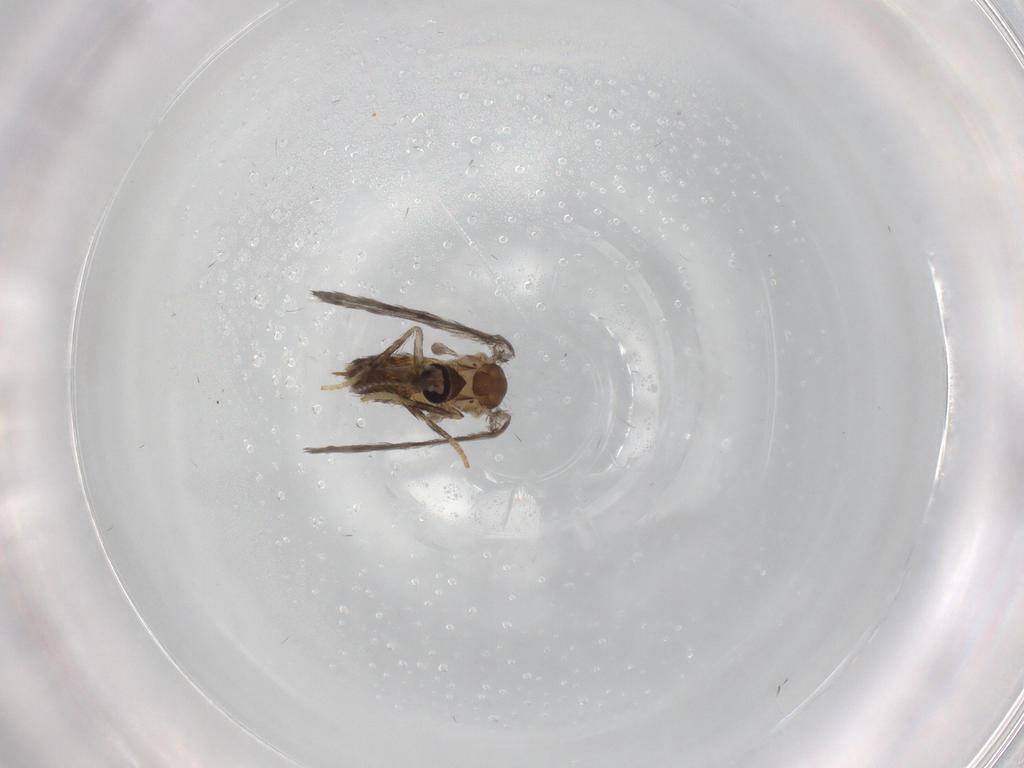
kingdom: Animalia
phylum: Arthropoda
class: Insecta
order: Diptera
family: Psychodidae
